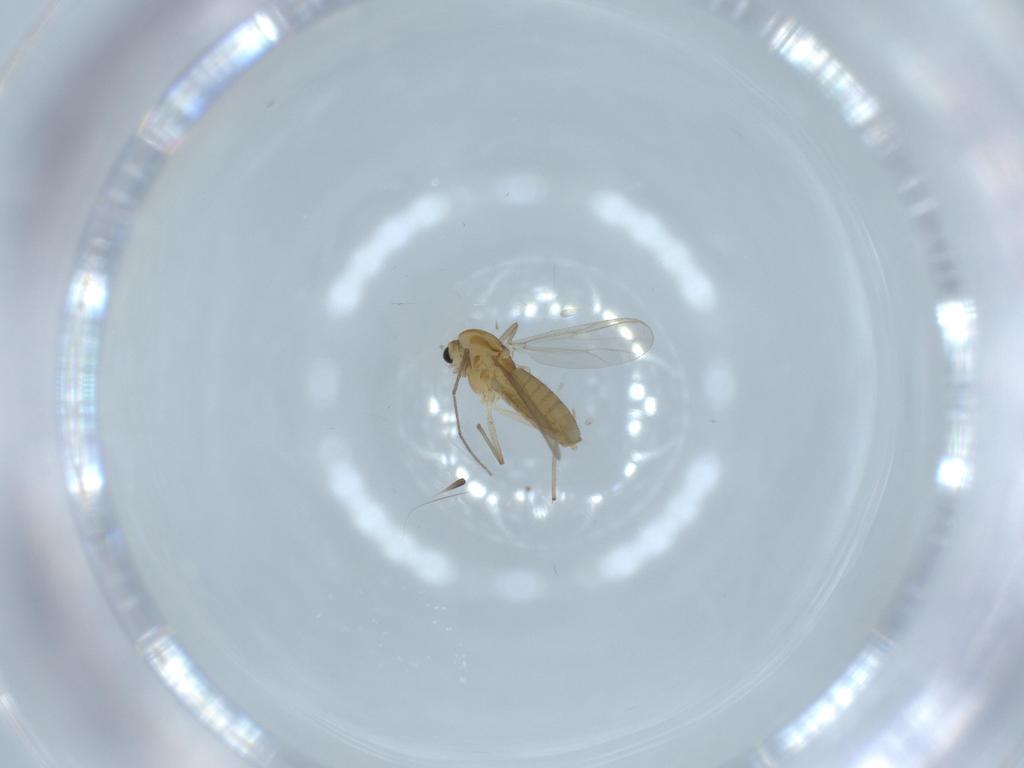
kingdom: Animalia
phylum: Arthropoda
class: Insecta
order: Diptera
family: Chironomidae
